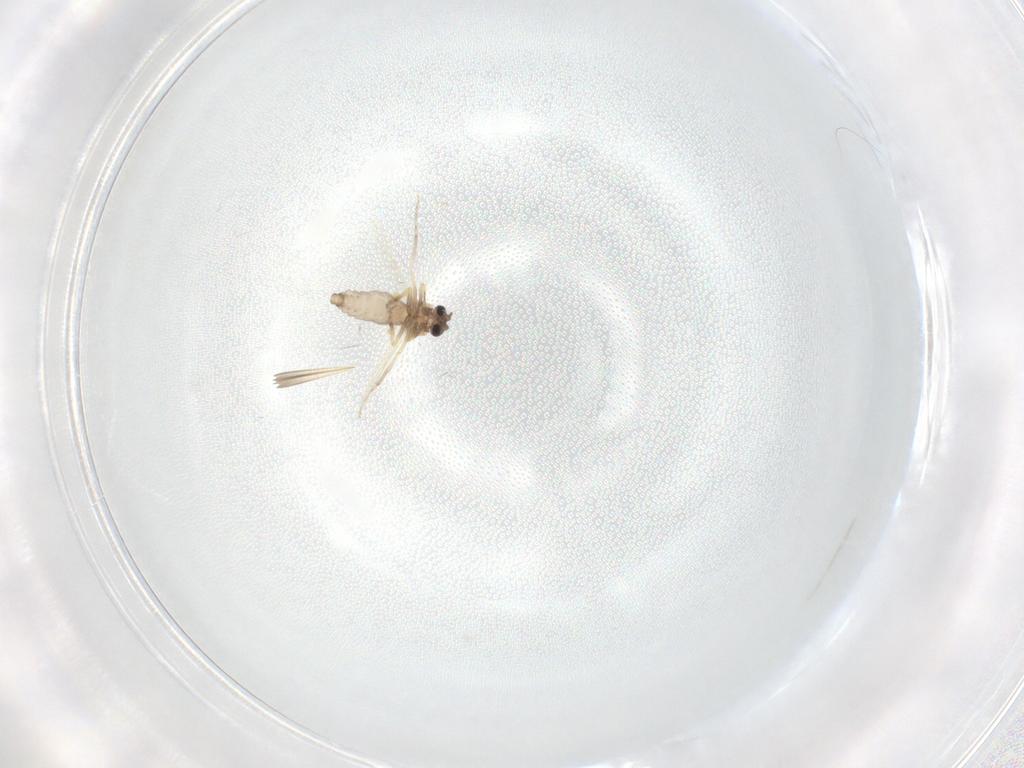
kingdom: Animalia
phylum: Arthropoda
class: Insecta
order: Diptera
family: Ceratopogonidae
